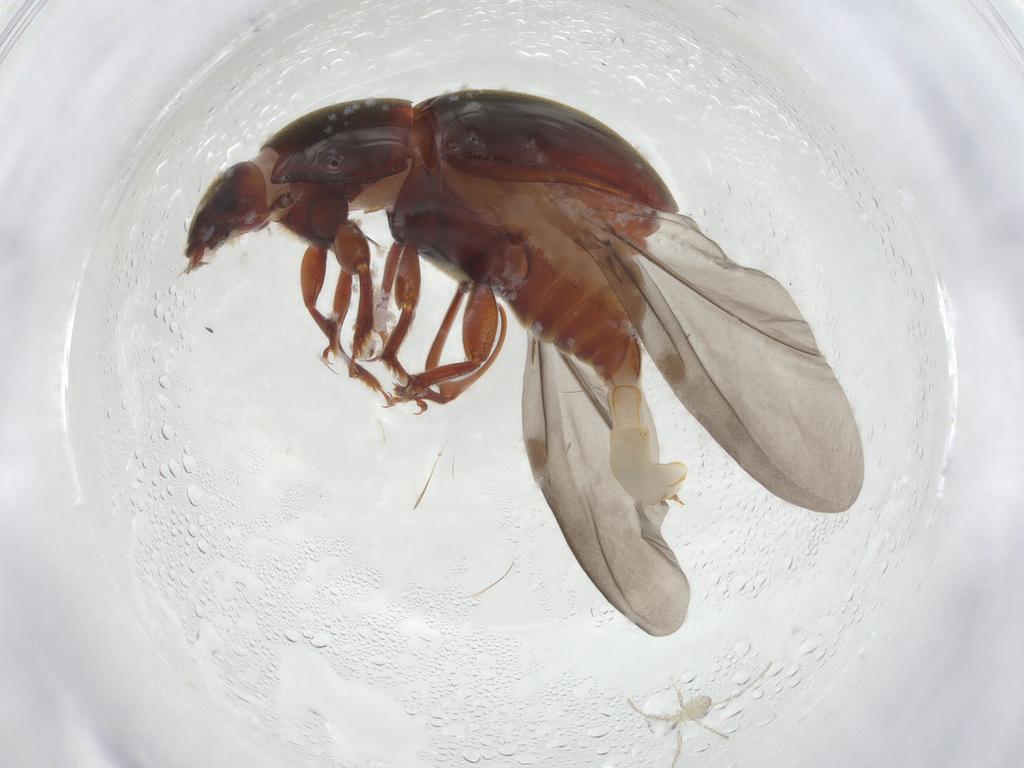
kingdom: Animalia
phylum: Arthropoda
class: Insecta
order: Coleoptera
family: Nitidulidae
